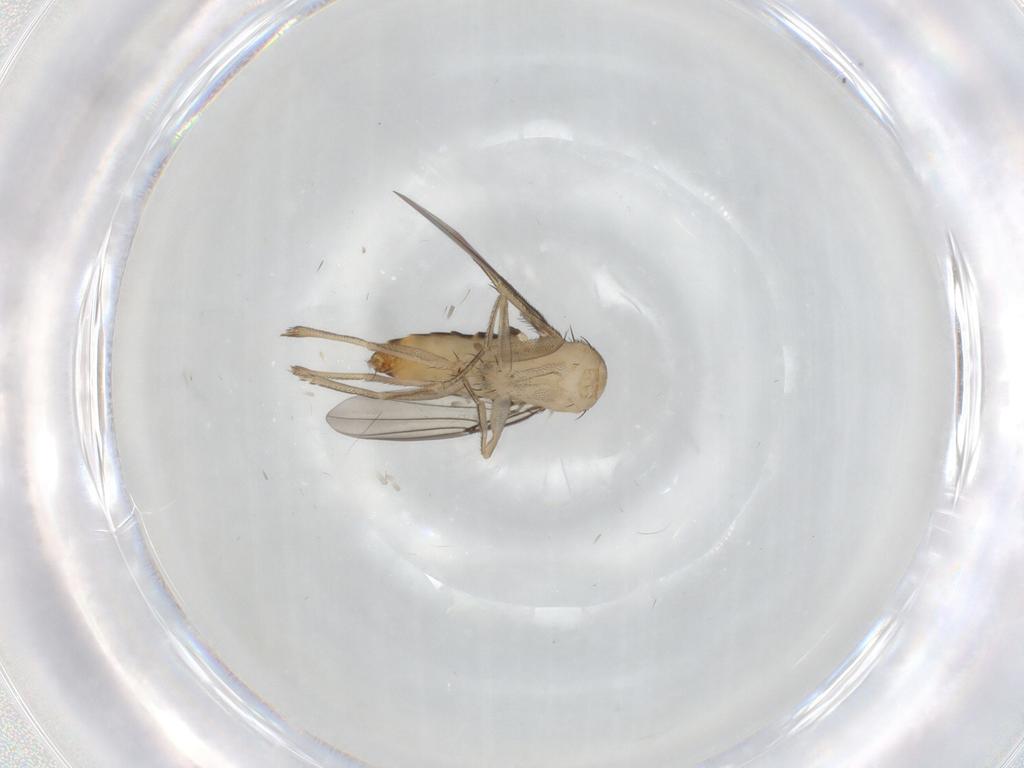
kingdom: Animalia
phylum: Arthropoda
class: Insecta
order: Diptera
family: Phoridae
